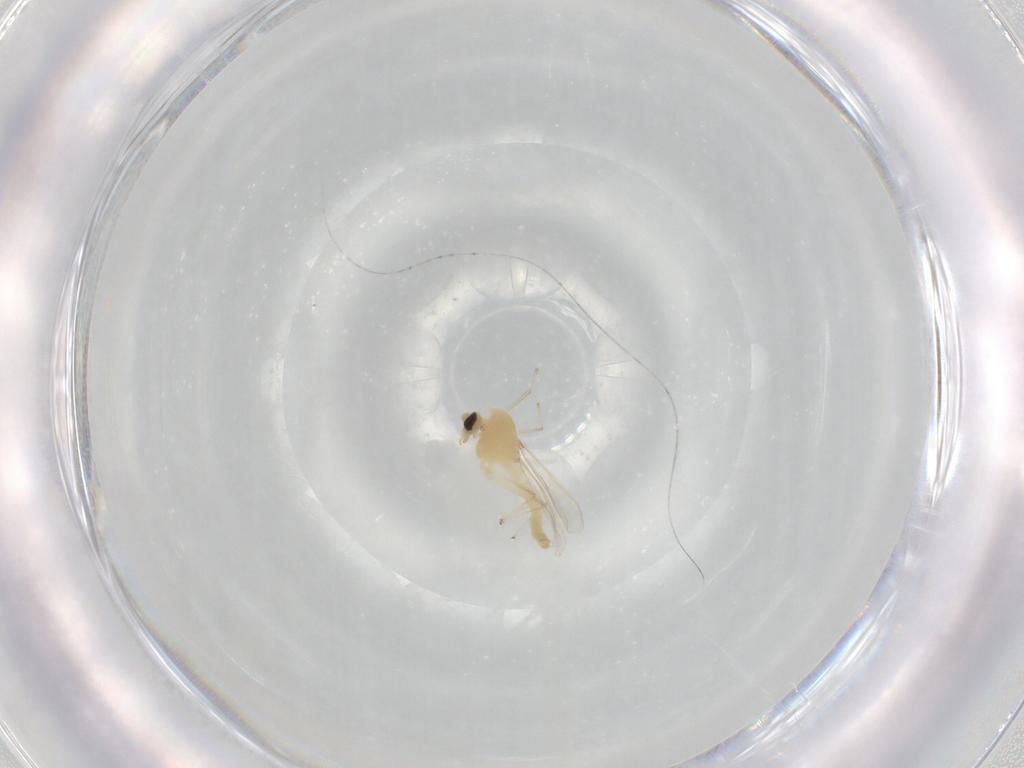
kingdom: Animalia
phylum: Arthropoda
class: Insecta
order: Diptera
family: Chironomidae
